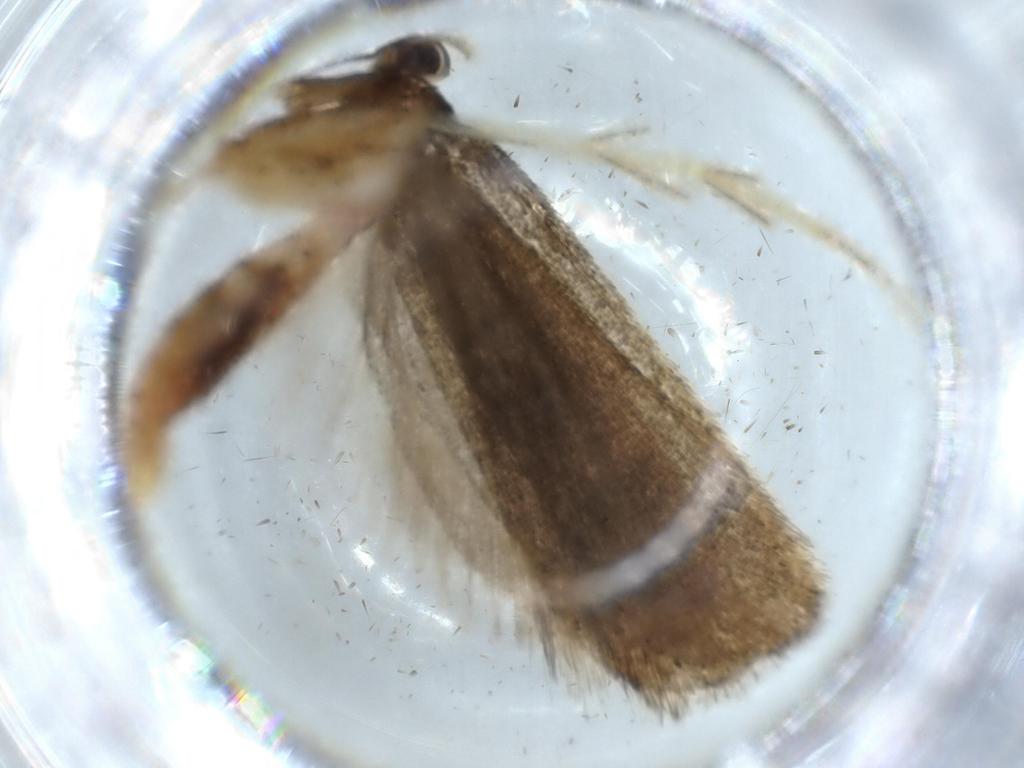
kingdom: Animalia
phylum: Arthropoda
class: Insecta
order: Lepidoptera
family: Lecithoceridae
